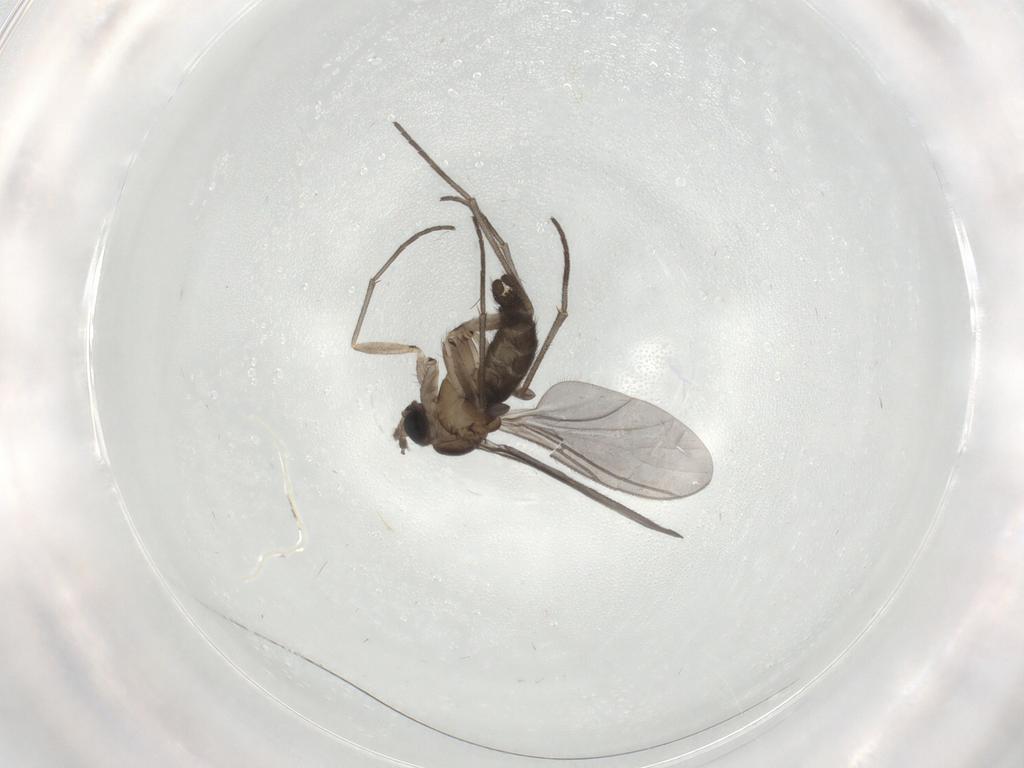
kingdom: Animalia
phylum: Arthropoda
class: Insecta
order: Diptera
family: Sciaridae
